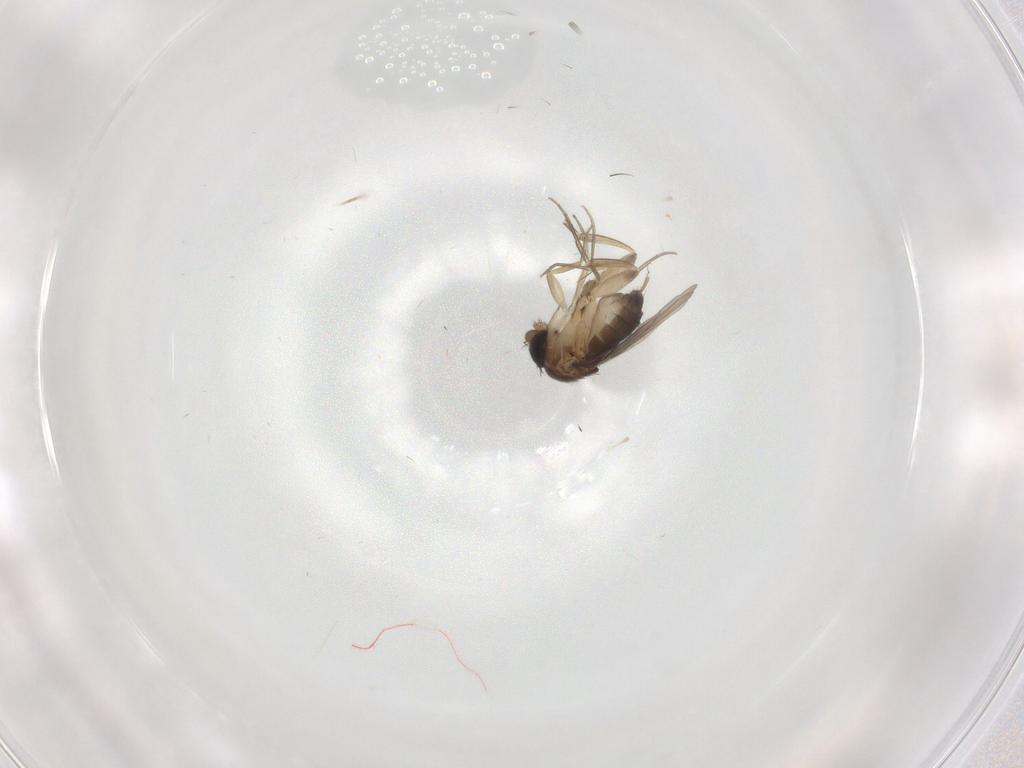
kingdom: Animalia
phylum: Arthropoda
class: Insecta
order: Diptera
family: Phoridae
